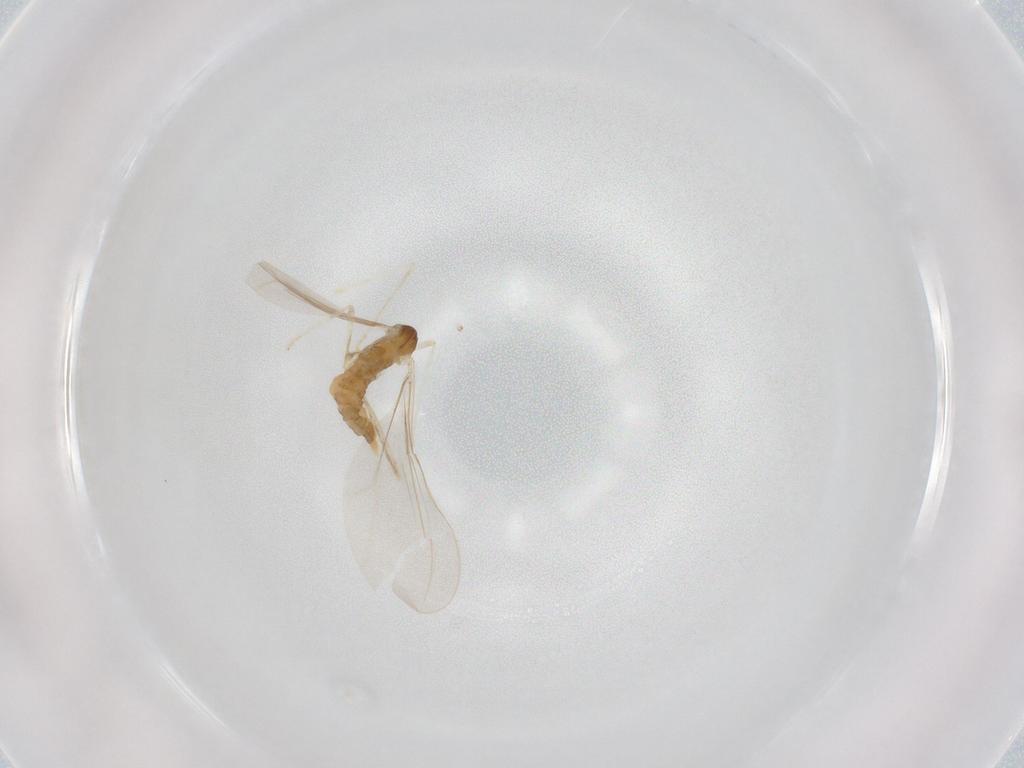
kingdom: Animalia
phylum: Arthropoda
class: Insecta
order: Diptera
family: Cecidomyiidae
